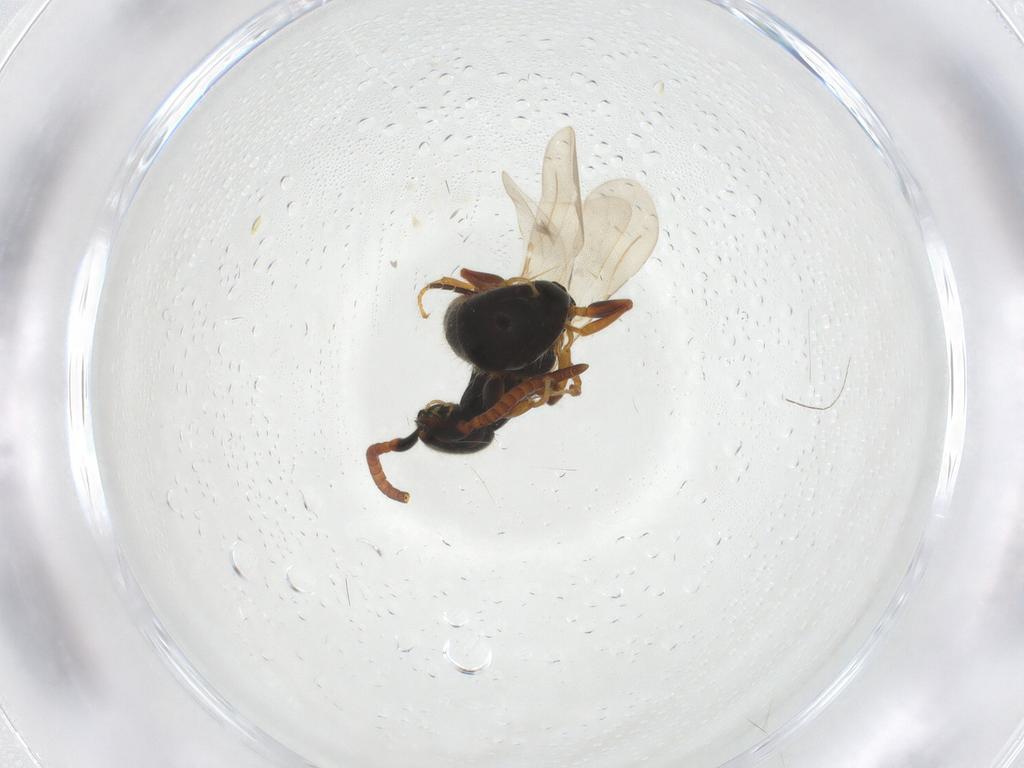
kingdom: Animalia
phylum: Arthropoda
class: Insecta
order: Hymenoptera
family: Bethylidae
